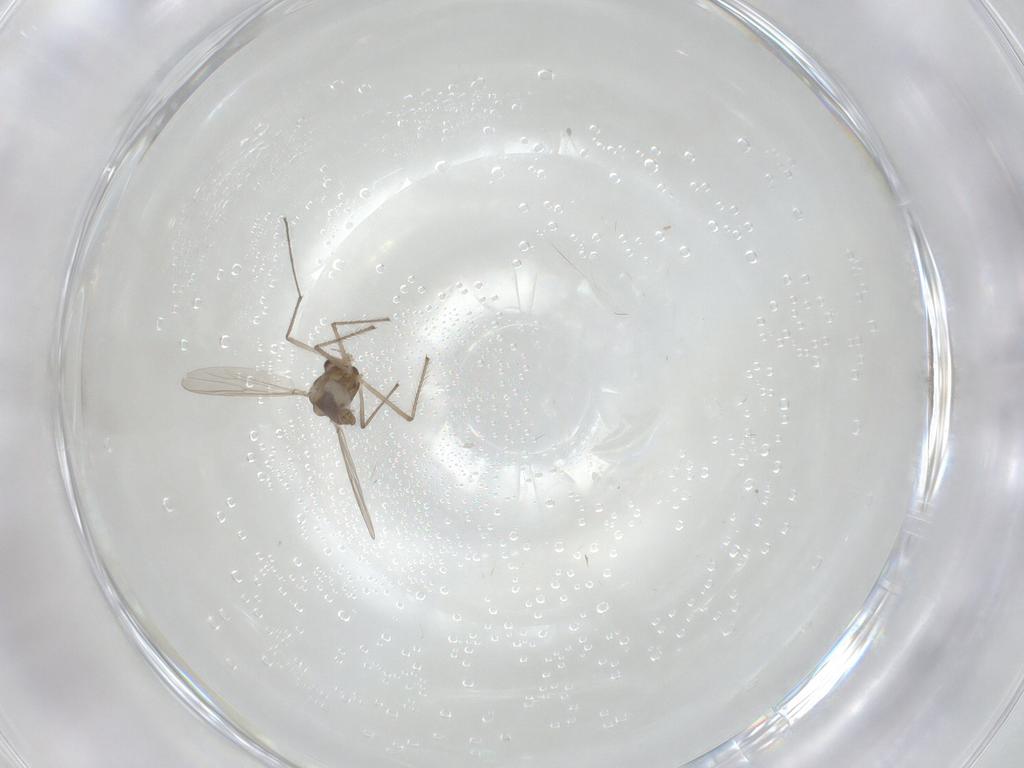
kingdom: Animalia
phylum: Arthropoda
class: Insecta
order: Diptera
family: Chironomidae
